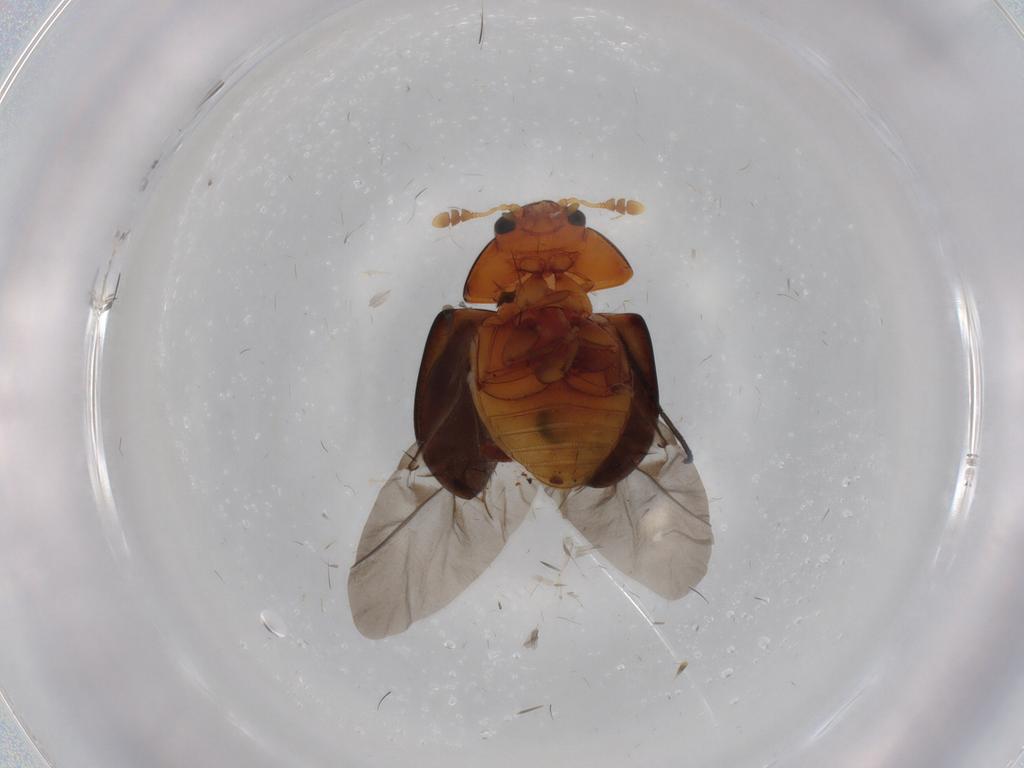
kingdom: Animalia
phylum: Arthropoda
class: Insecta
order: Coleoptera
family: Phalacridae
